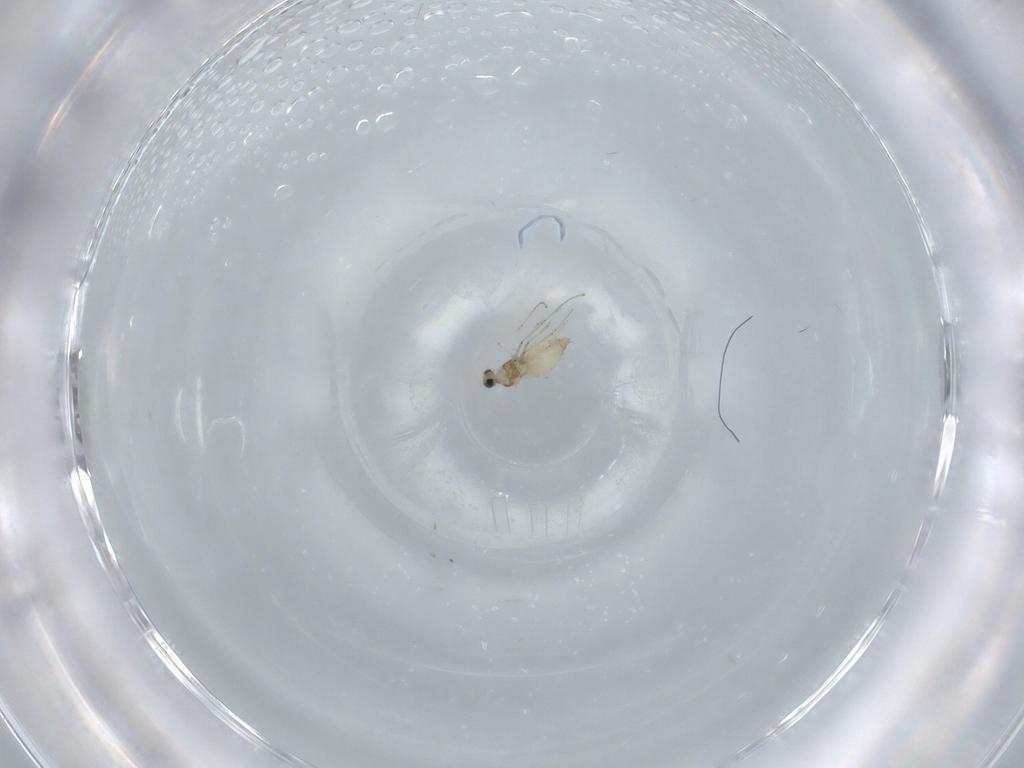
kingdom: Animalia
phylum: Arthropoda
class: Insecta
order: Diptera
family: Cecidomyiidae
